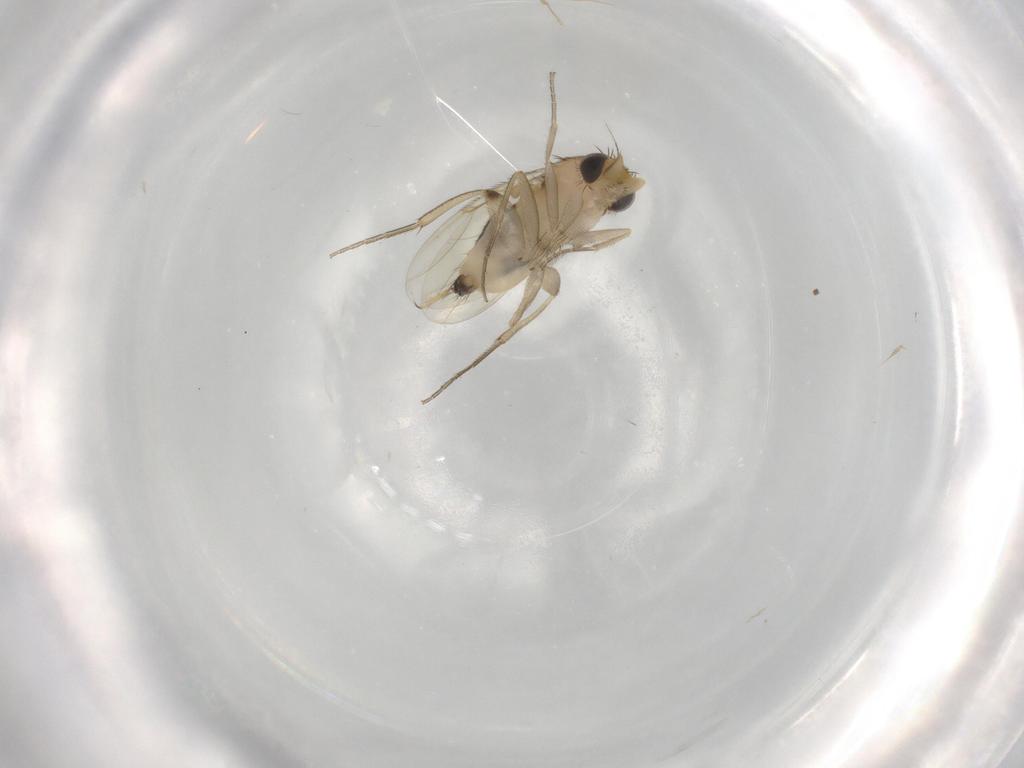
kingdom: Animalia
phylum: Arthropoda
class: Insecta
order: Diptera
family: Phoridae
